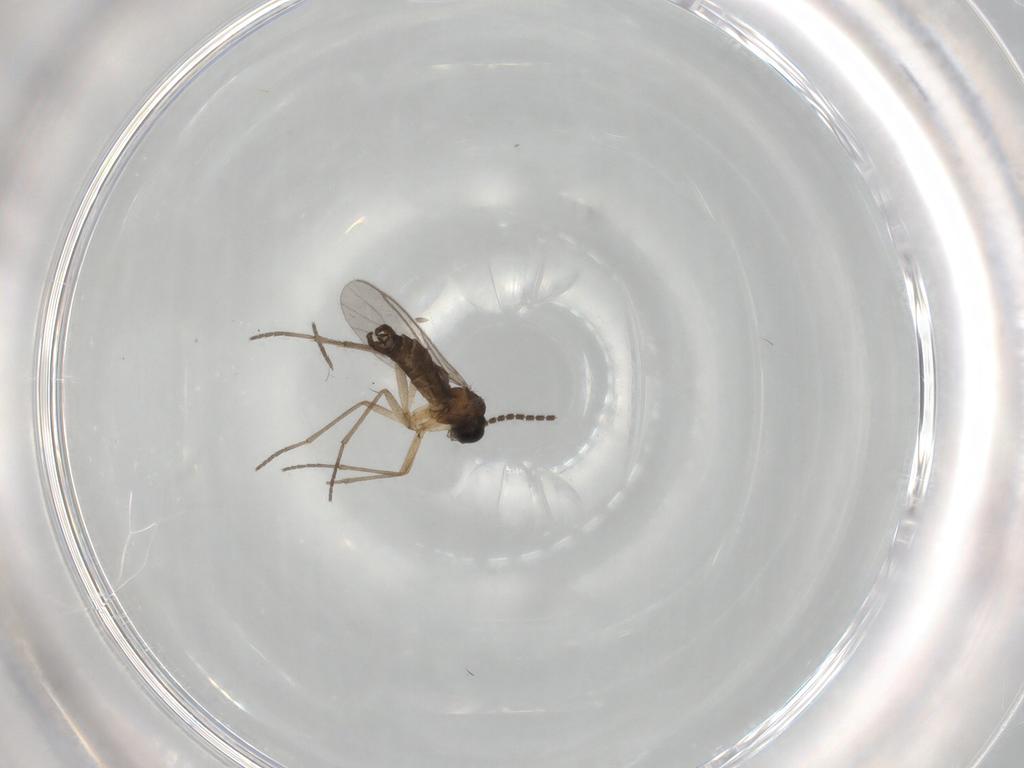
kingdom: Animalia
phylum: Arthropoda
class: Insecta
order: Diptera
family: Sciaridae
